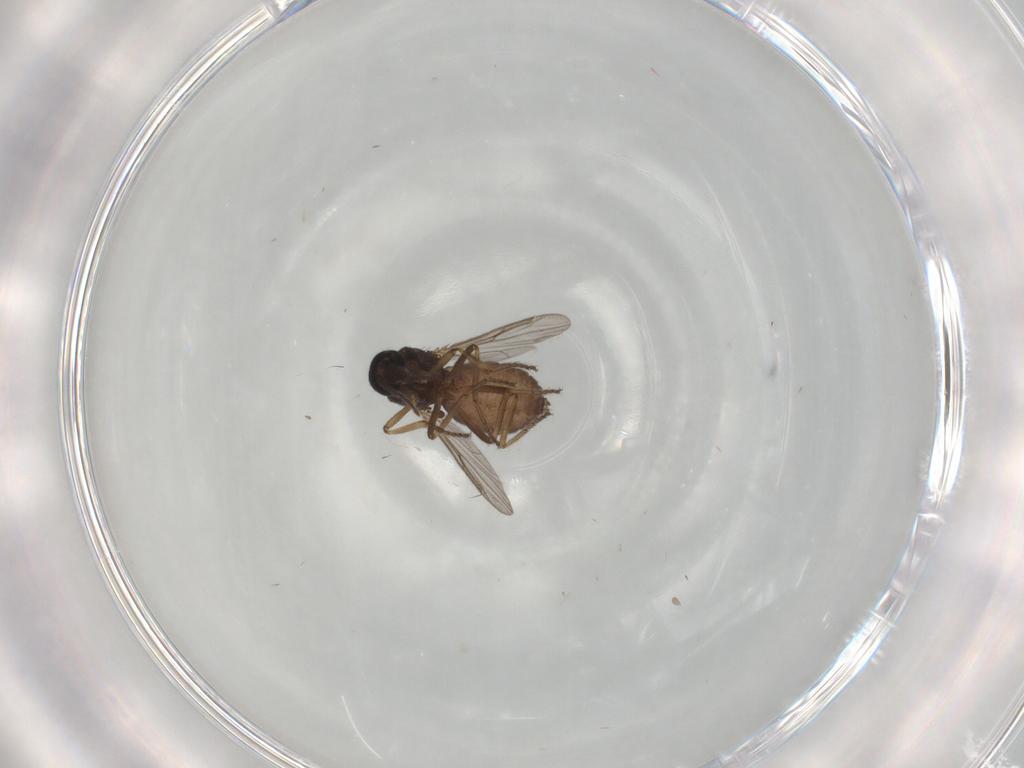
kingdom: Animalia
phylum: Arthropoda
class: Insecta
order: Diptera
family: Ceratopogonidae
